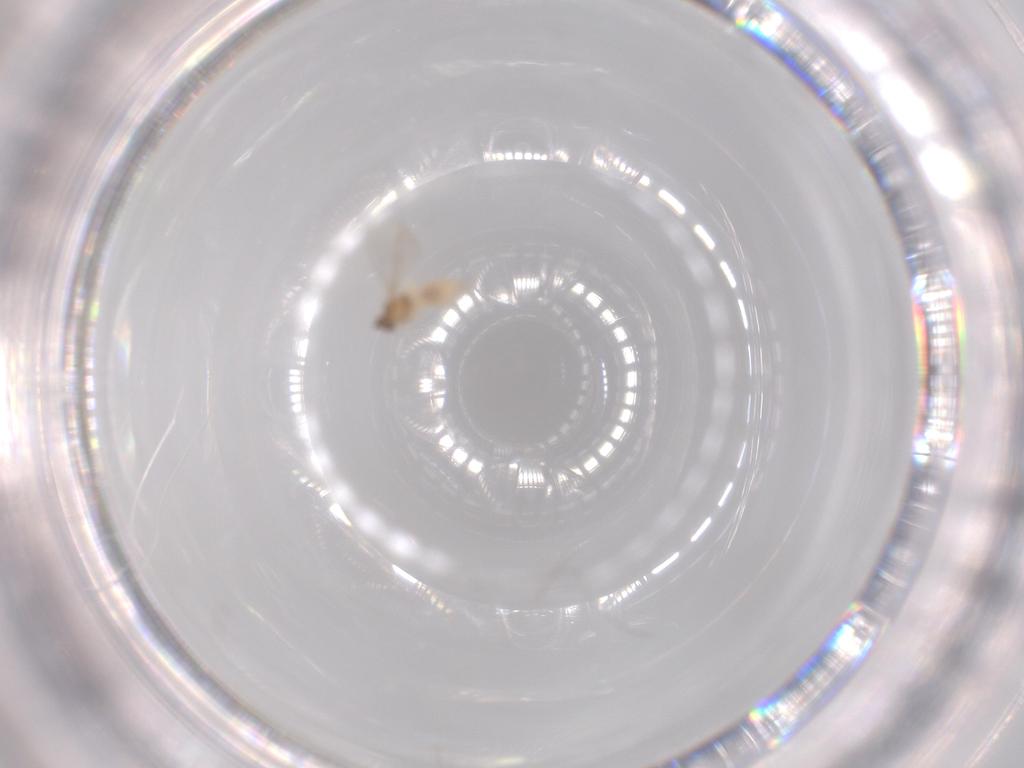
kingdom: Animalia
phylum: Arthropoda
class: Insecta
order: Diptera
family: Cecidomyiidae
